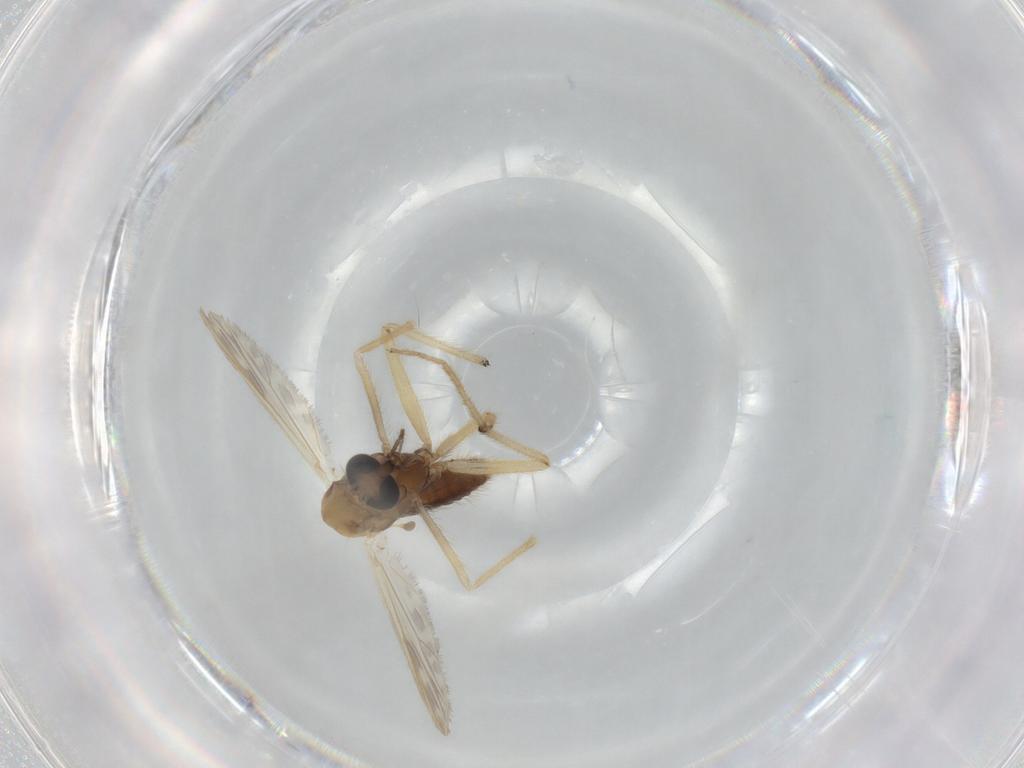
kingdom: Animalia
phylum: Arthropoda
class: Insecta
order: Diptera
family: Chironomidae
